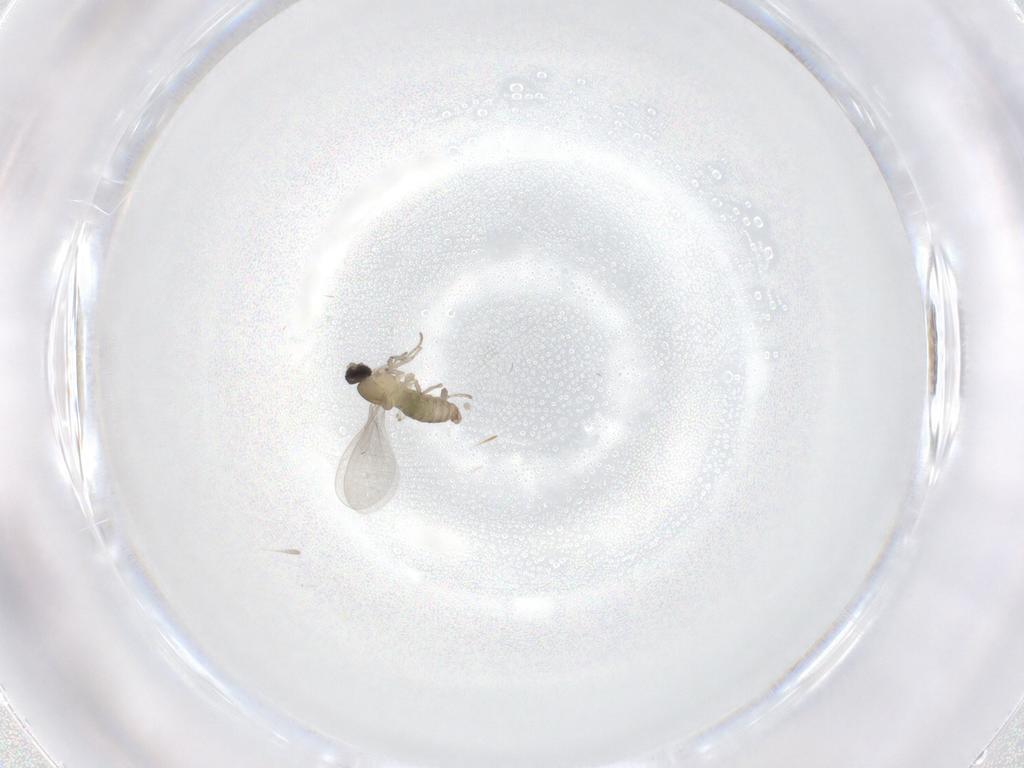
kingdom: Animalia
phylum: Arthropoda
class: Insecta
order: Diptera
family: Cecidomyiidae
